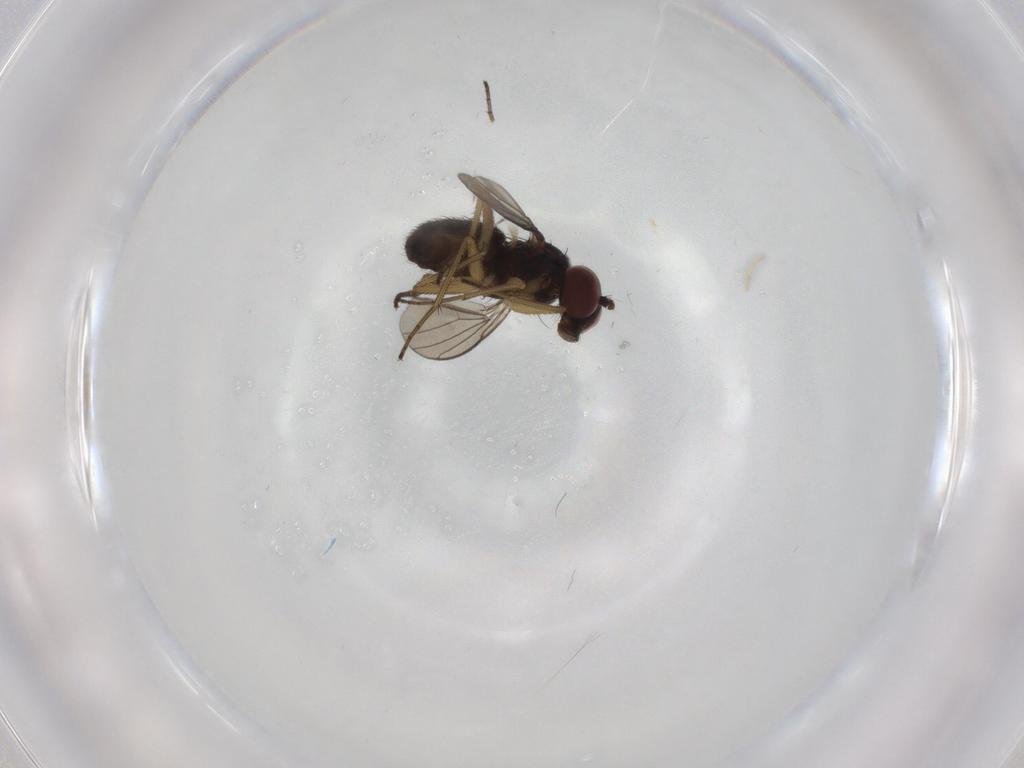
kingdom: Animalia
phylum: Arthropoda
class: Insecta
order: Diptera
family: Dolichopodidae
